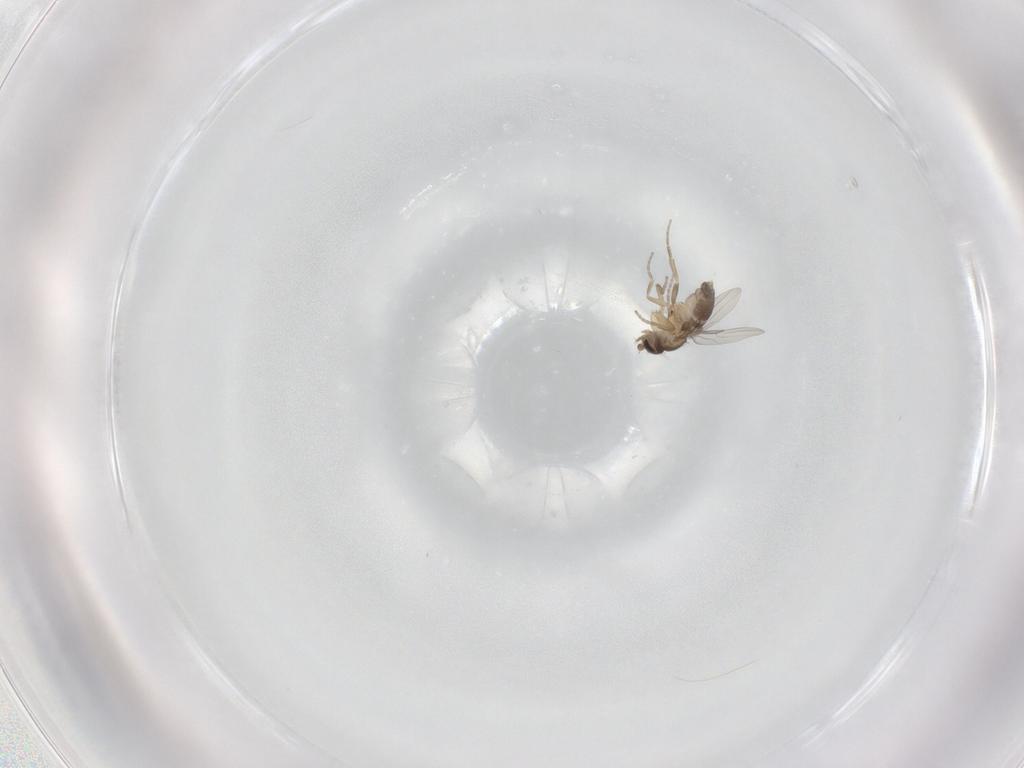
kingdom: Animalia
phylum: Arthropoda
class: Insecta
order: Diptera
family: Phoridae
